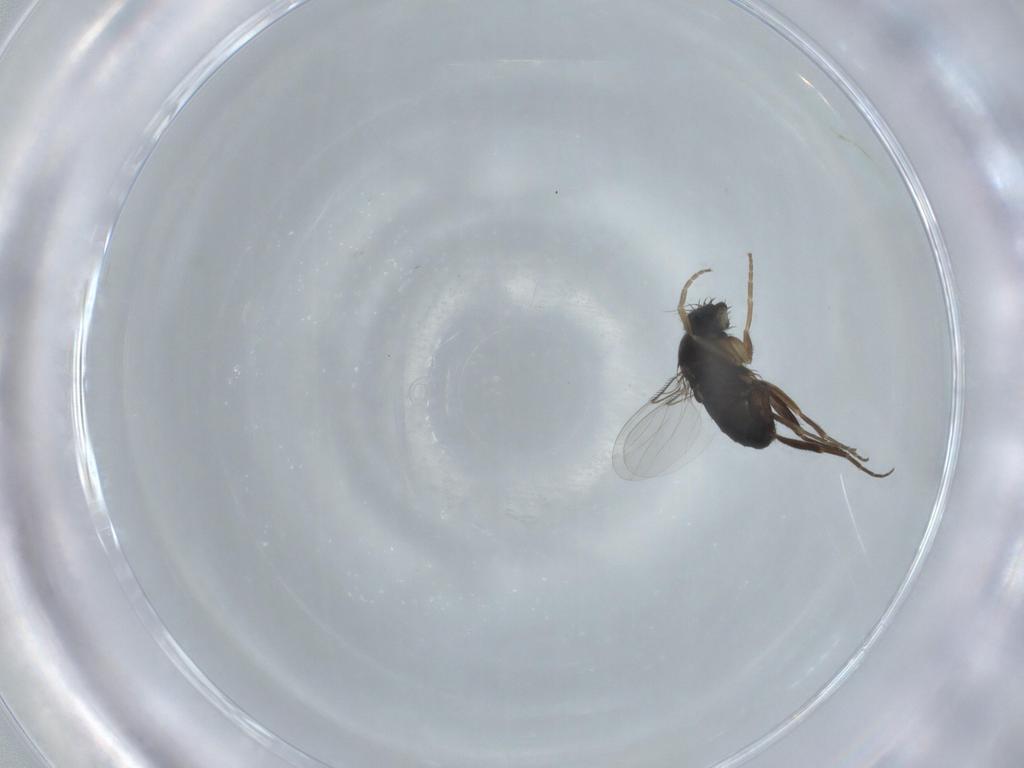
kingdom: Animalia
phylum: Arthropoda
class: Insecta
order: Diptera
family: Phoridae
